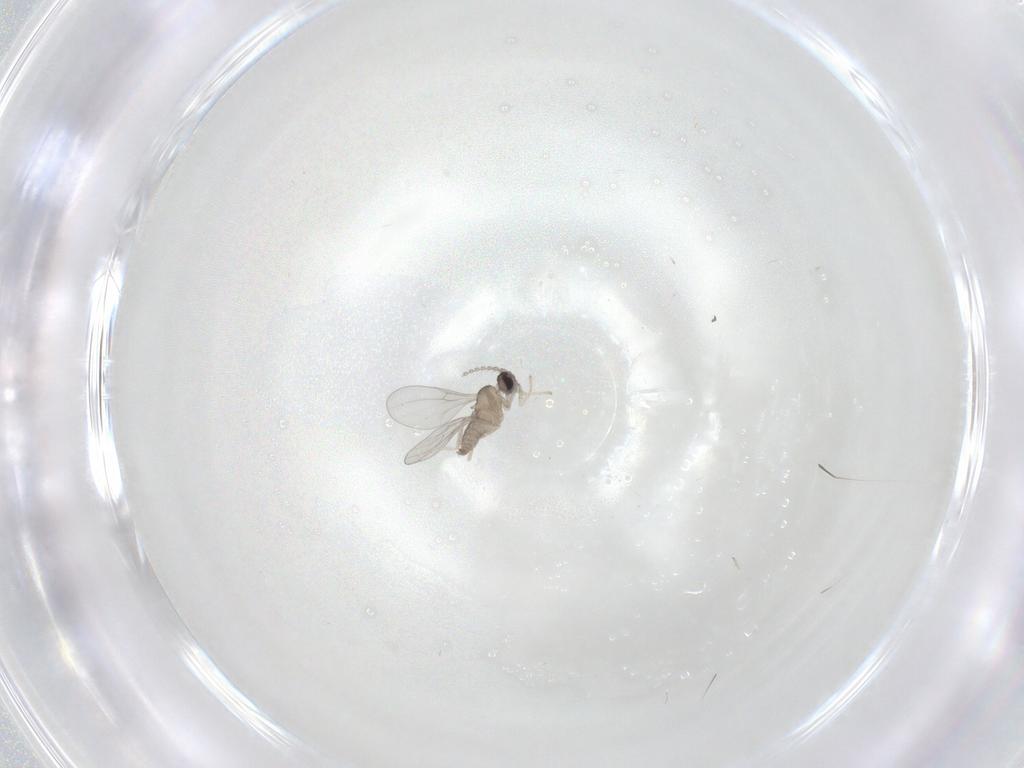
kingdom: Animalia
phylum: Arthropoda
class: Insecta
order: Diptera
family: Cecidomyiidae
